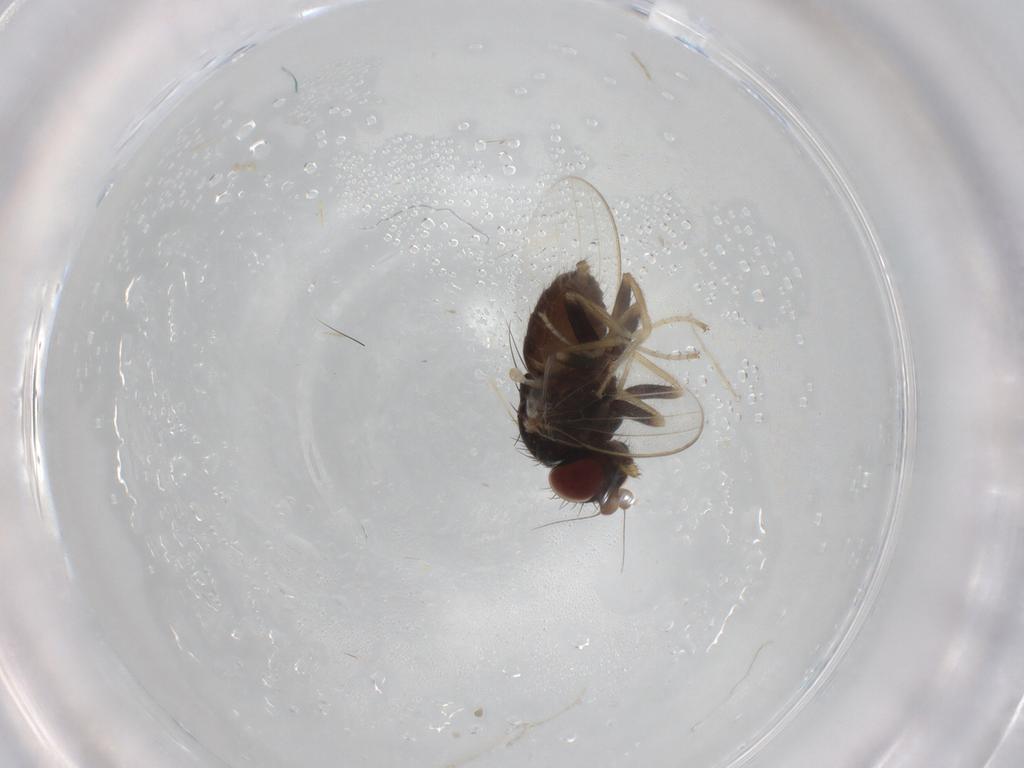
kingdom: Animalia
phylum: Arthropoda
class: Insecta
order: Diptera
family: Milichiidae
